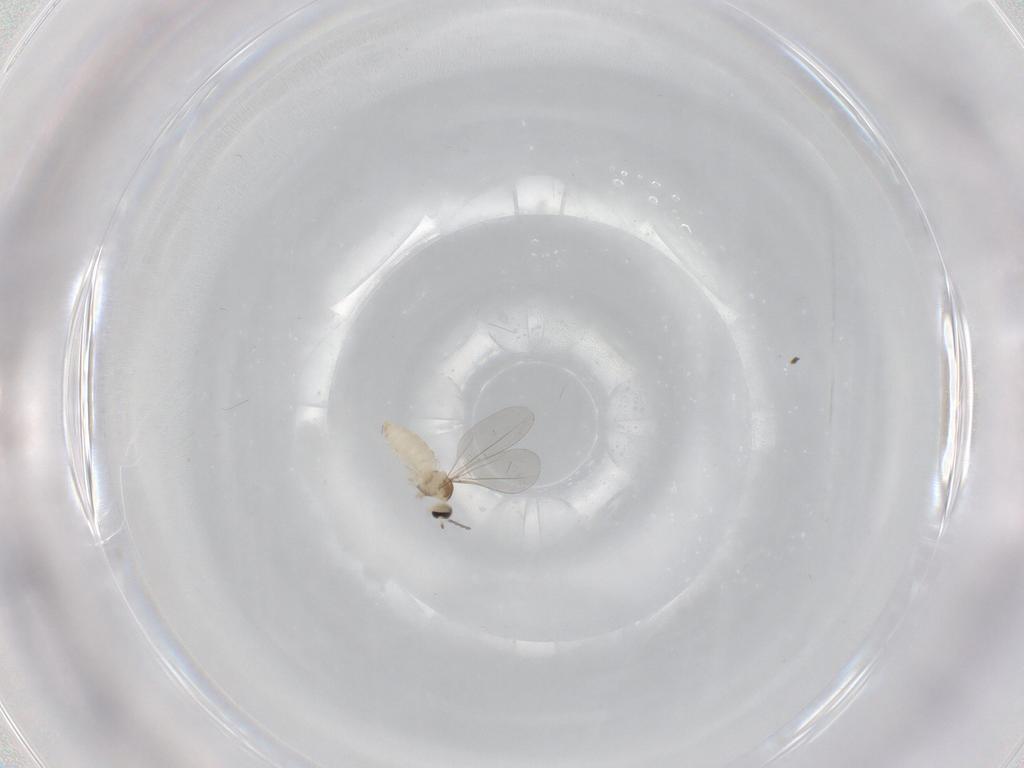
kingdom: Animalia
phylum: Arthropoda
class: Insecta
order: Diptera
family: Cecidomyiidae
